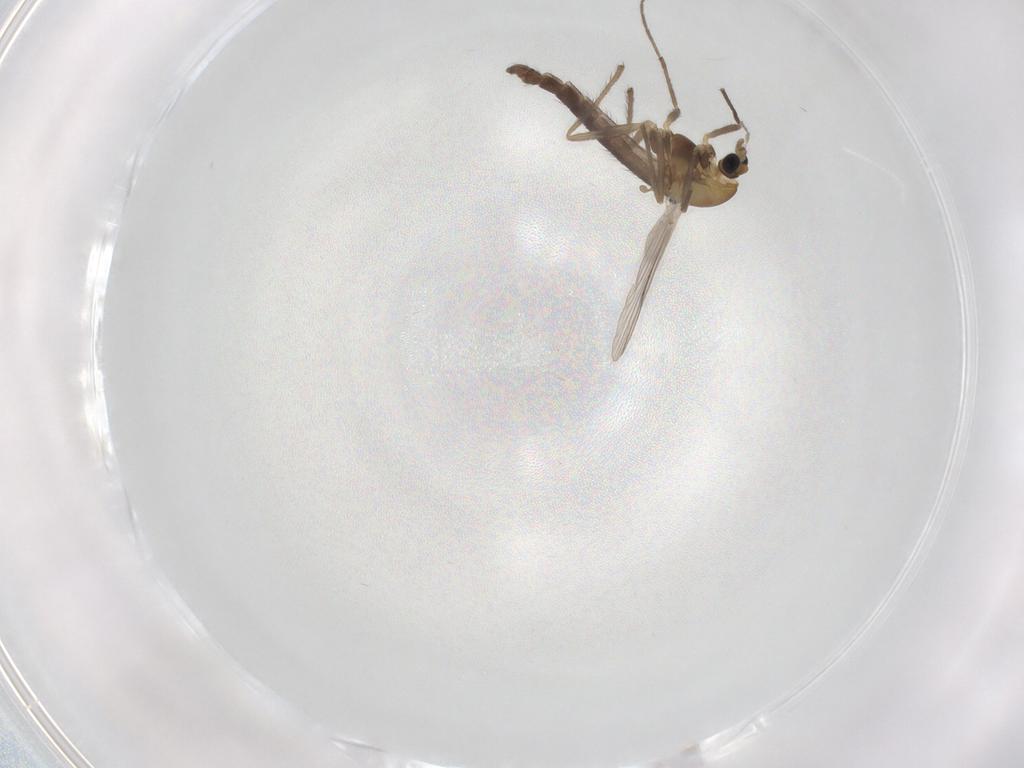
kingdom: Animalia
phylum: Arthropoda
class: Insecta
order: Diptera
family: Chironomidae
